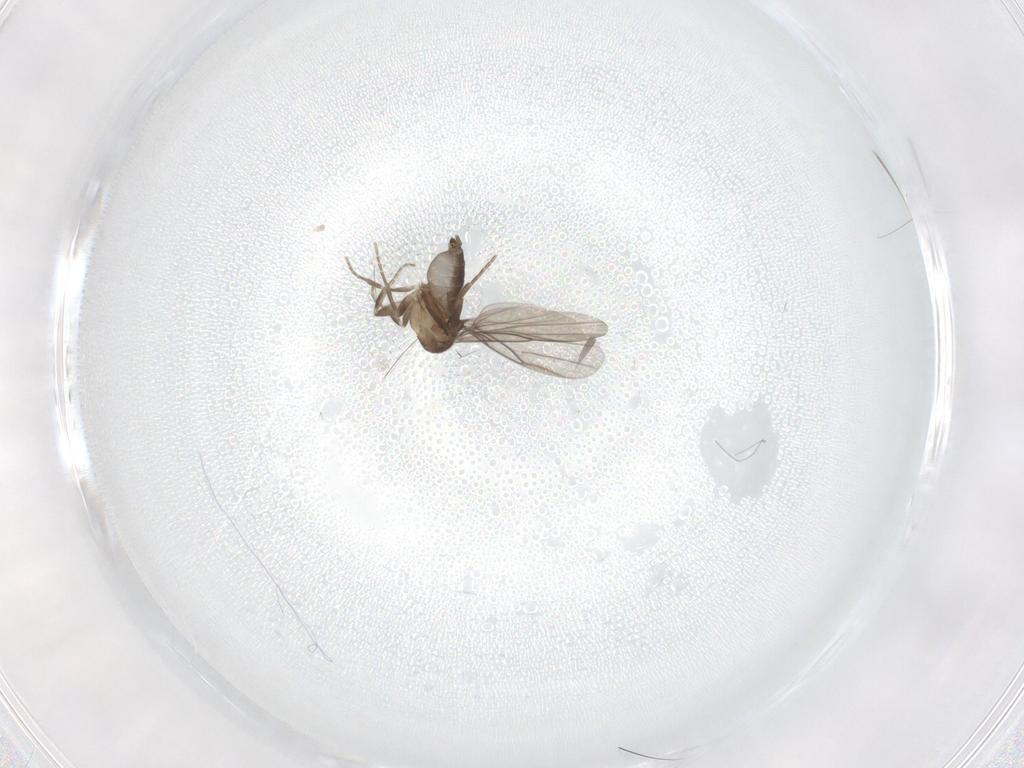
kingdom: Animalia
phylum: Arthropoda
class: Insecta
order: Diptera
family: Phoridae
